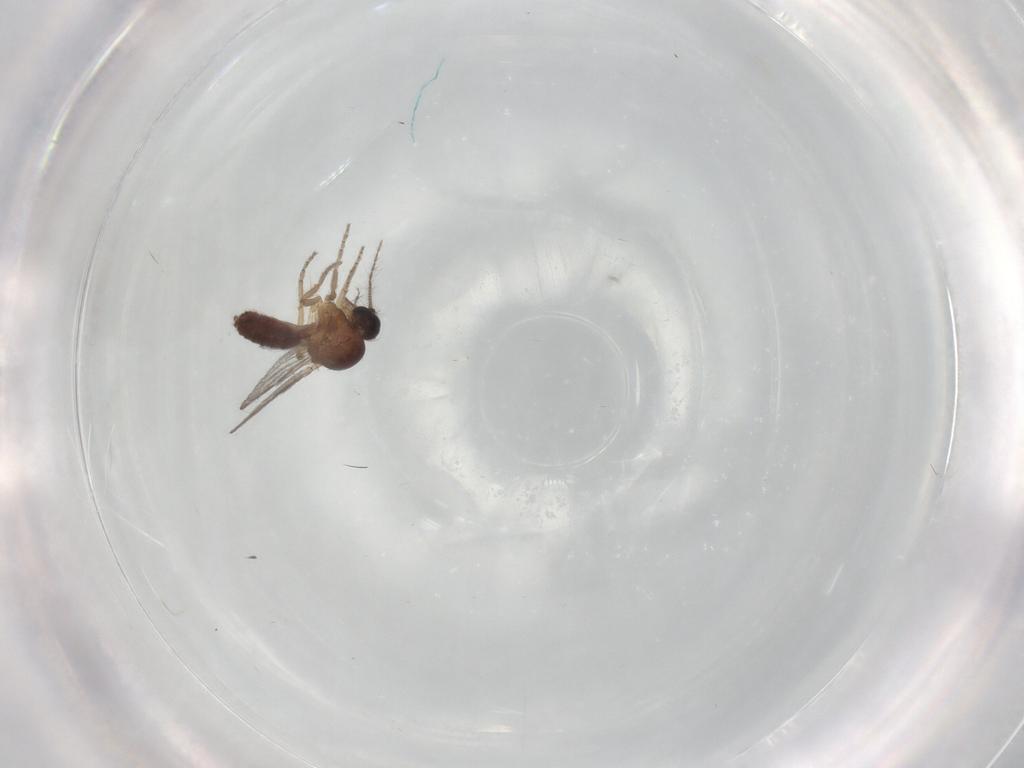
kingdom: Animalia
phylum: Arthropoda
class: Insecta
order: Diptera
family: Ceratopogonidae
